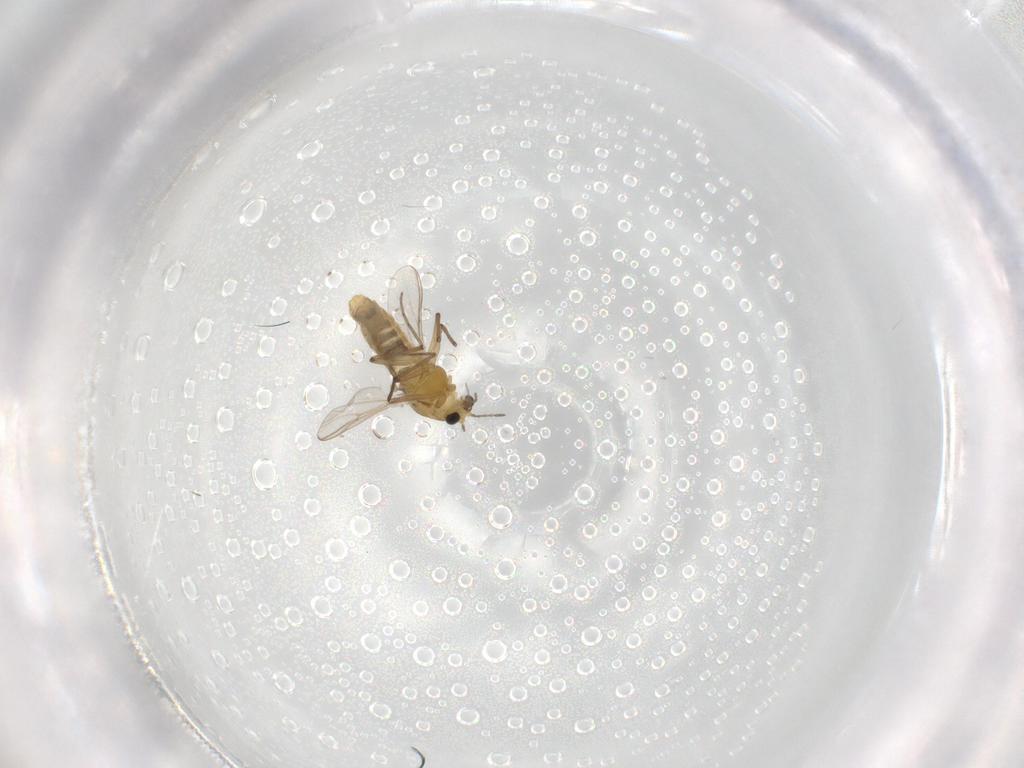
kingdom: Animalia
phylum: Arthropoda
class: Insecta
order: Diptera
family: Chironomidae
